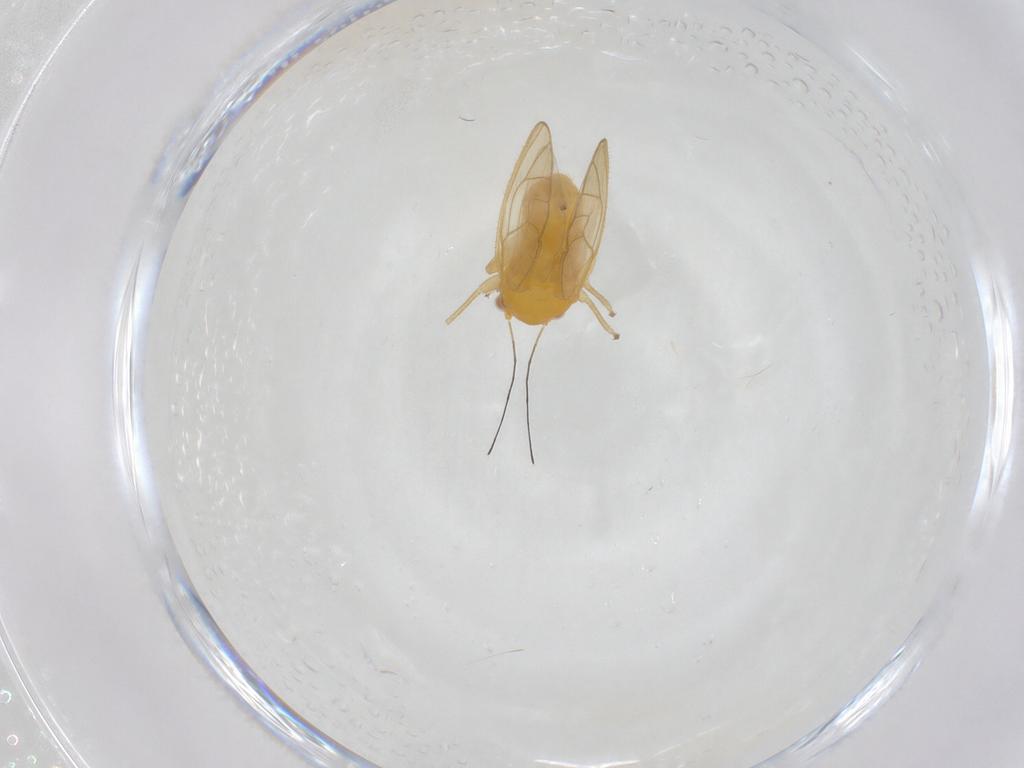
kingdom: Animalia
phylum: Arthropoda
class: Insecta
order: Hemiptera
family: Psyllidae
